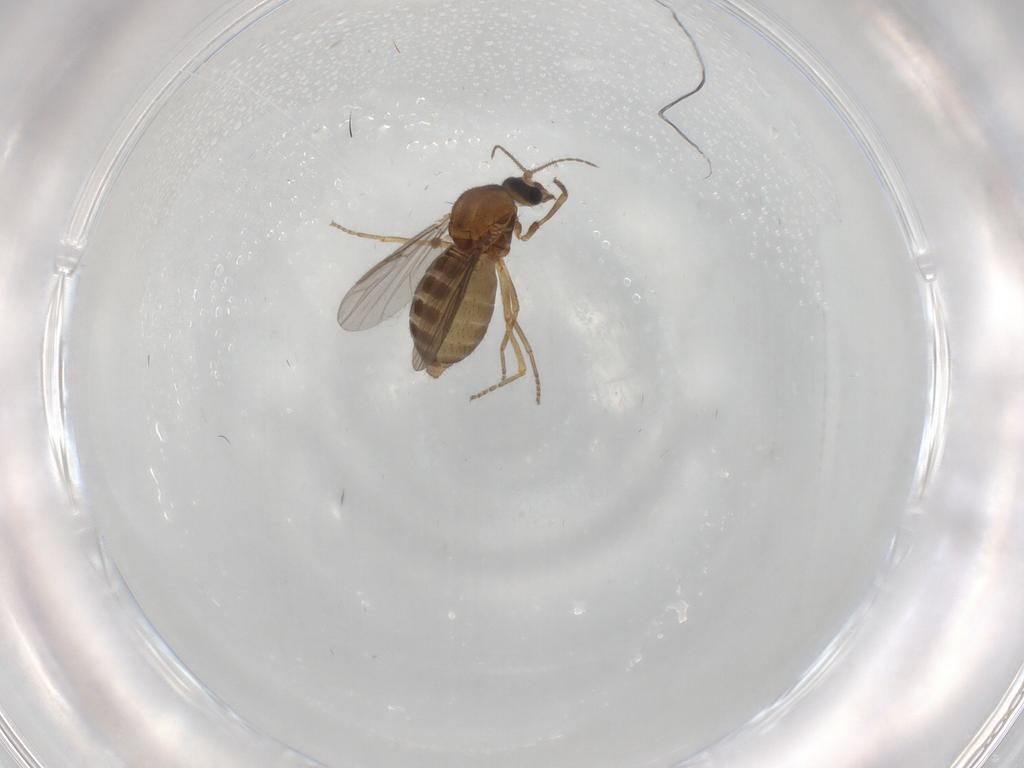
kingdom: Animalia
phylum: Arthropoda
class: Insecta
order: Diptera
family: Ceratopogonidae
